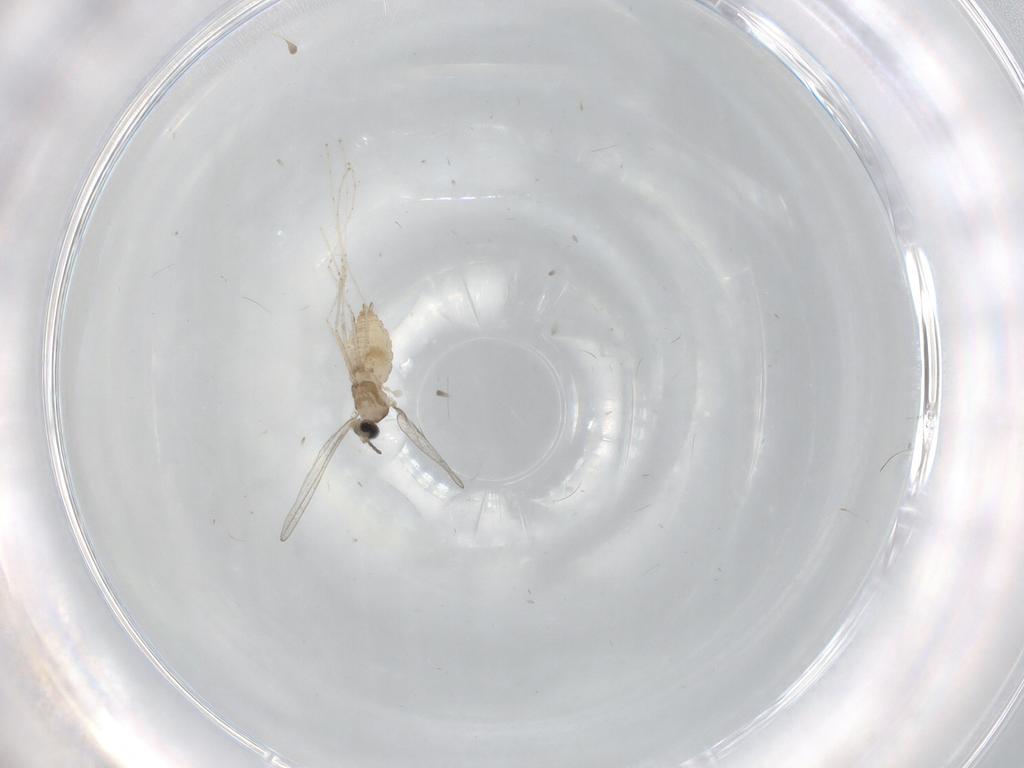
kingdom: Animalia
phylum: Arthropoda
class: Insecta
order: Diptera
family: Cecidomyiidae
